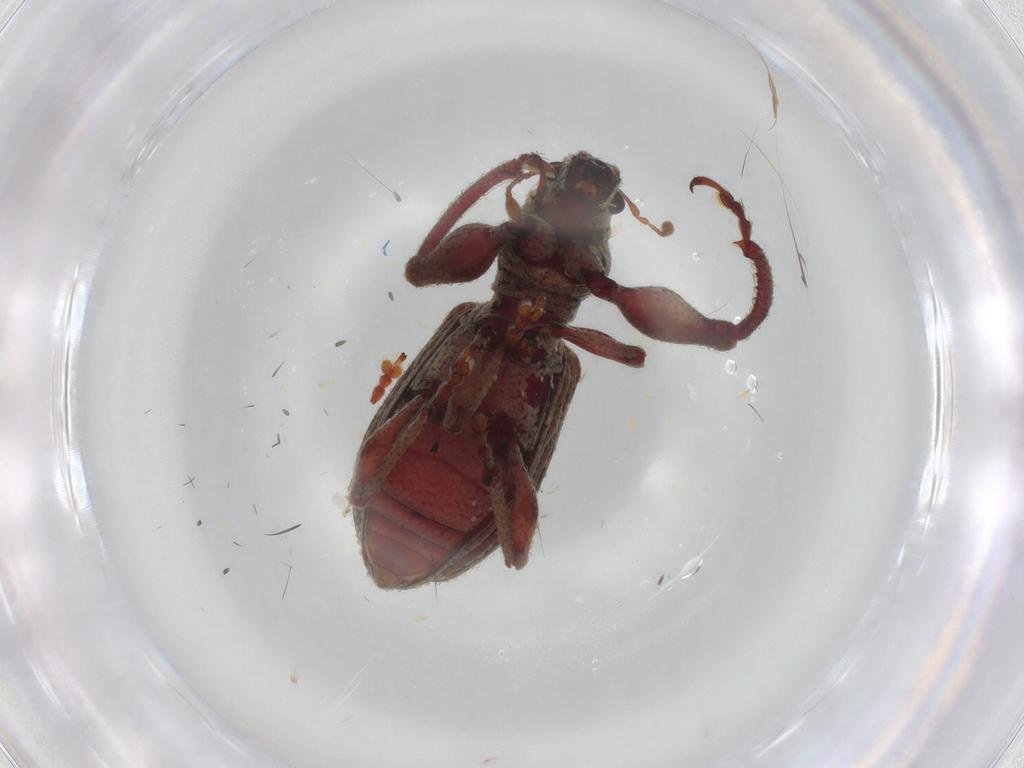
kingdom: Animalia
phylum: Arthropoda
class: Insecta
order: Coleoptera
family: Curculionidae
